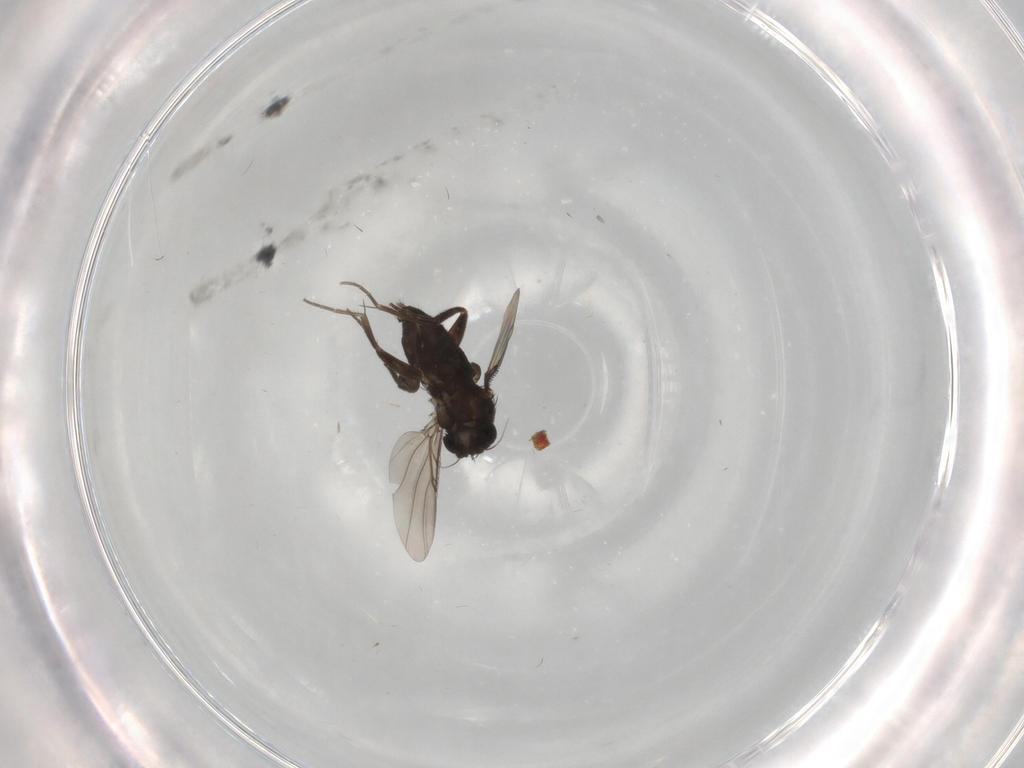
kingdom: Animalia
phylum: Arthropoda
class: Insecta
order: Diptera
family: Phoridae
